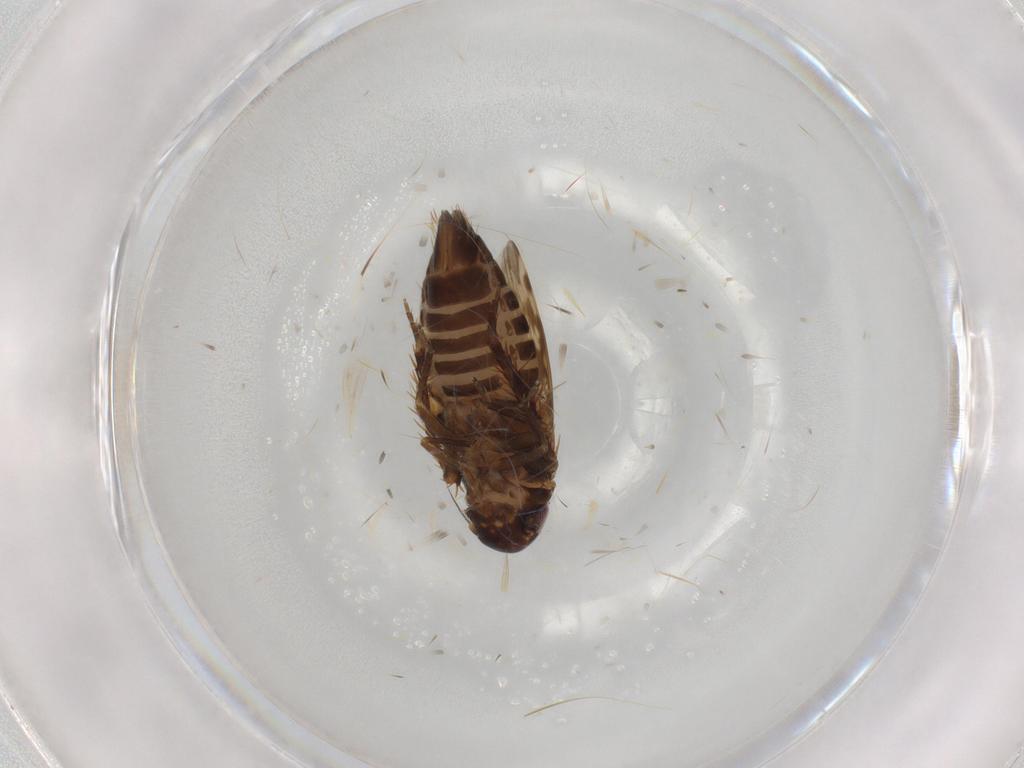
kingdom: Animalia
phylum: Arthropoda
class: Insecta
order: Hemiptera
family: Cicadellidae
